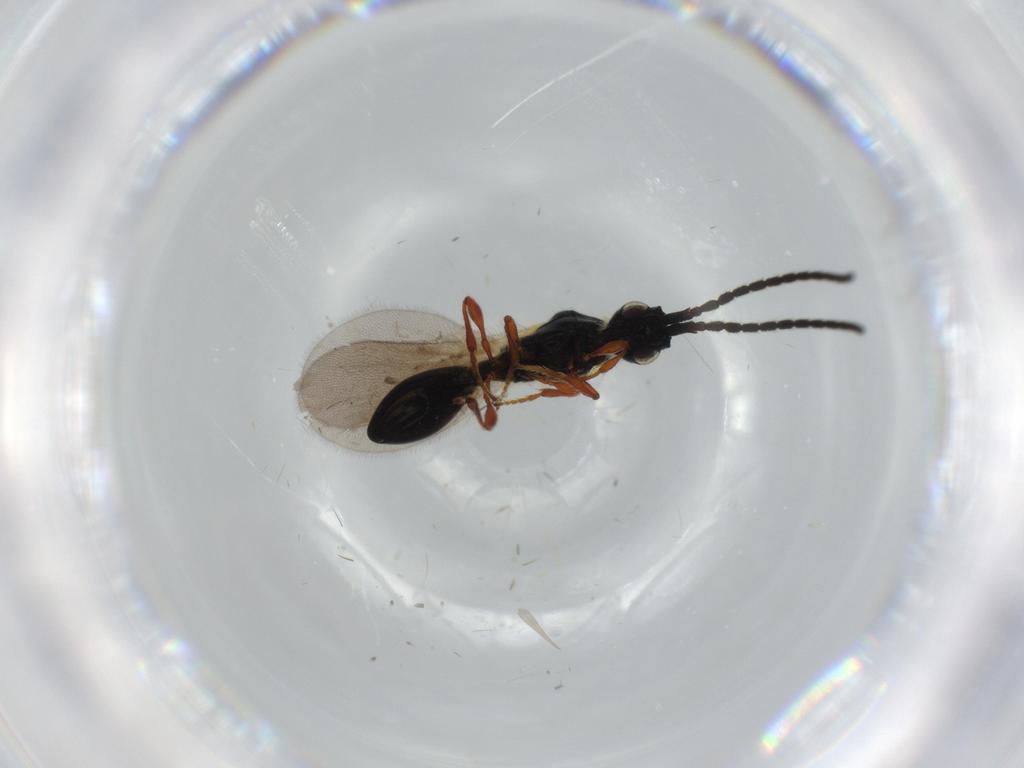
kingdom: Animalia
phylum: Arthropoda
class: Insecta
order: Hymenoptera
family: Diapriidae
